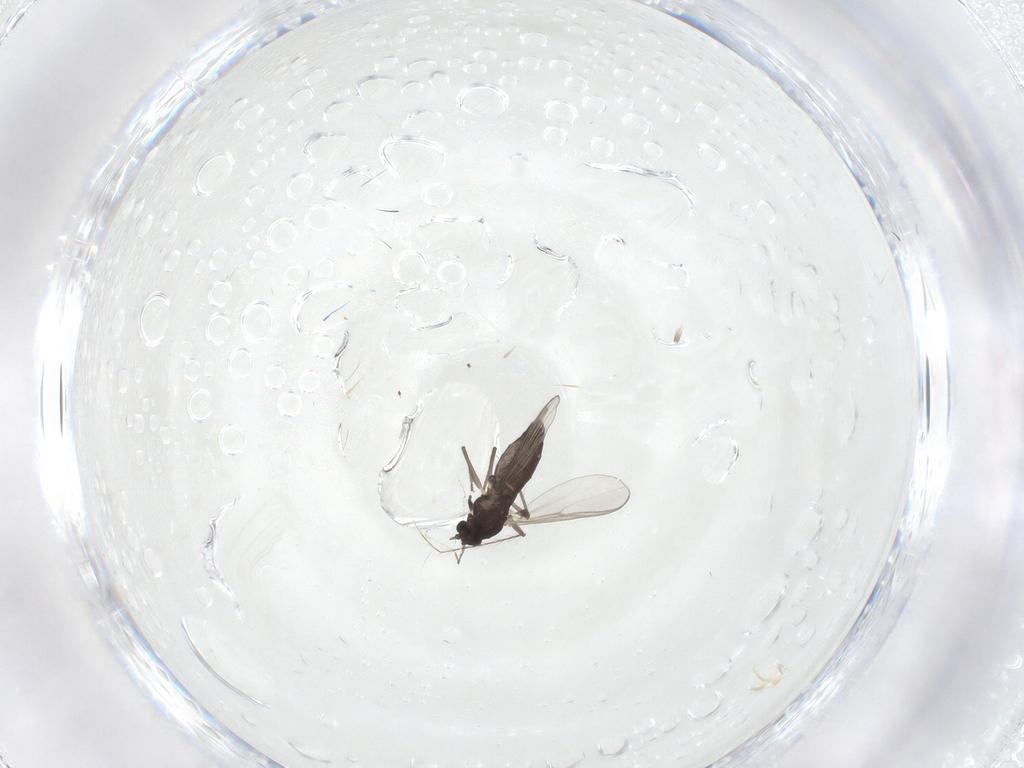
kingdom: Animalia
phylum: Arthropoda
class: Insecta
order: Diptera
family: Chironomidae
